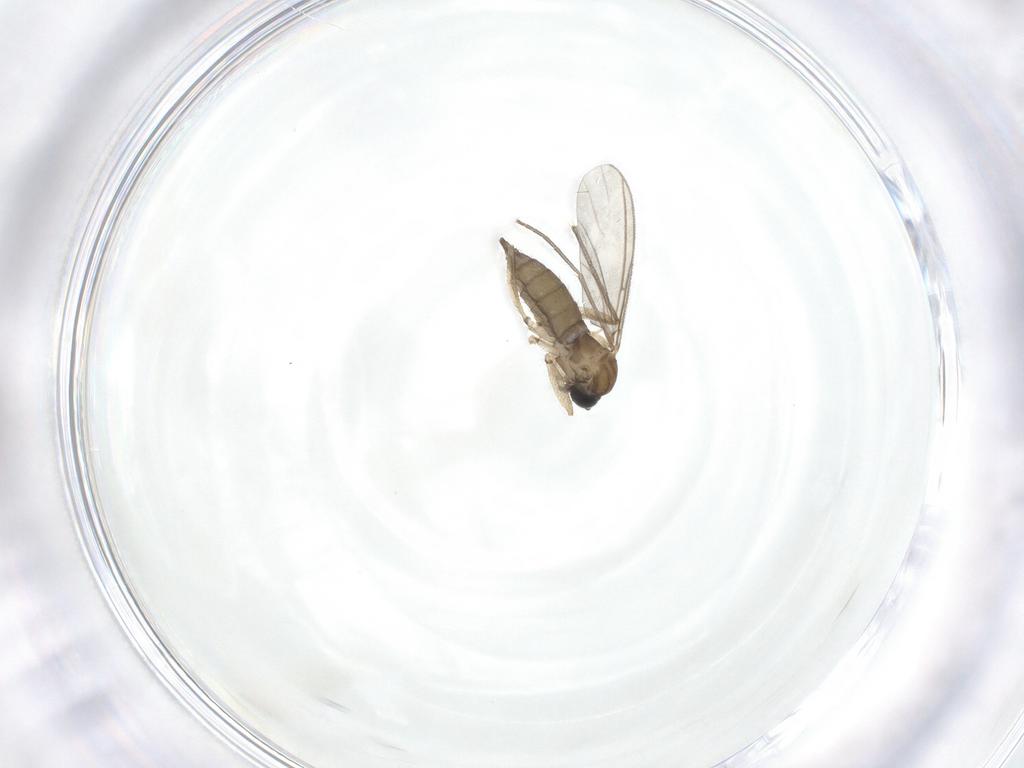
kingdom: Animalia
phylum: Arthropoda
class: Insecta
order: Diptera
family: Sciaridae
